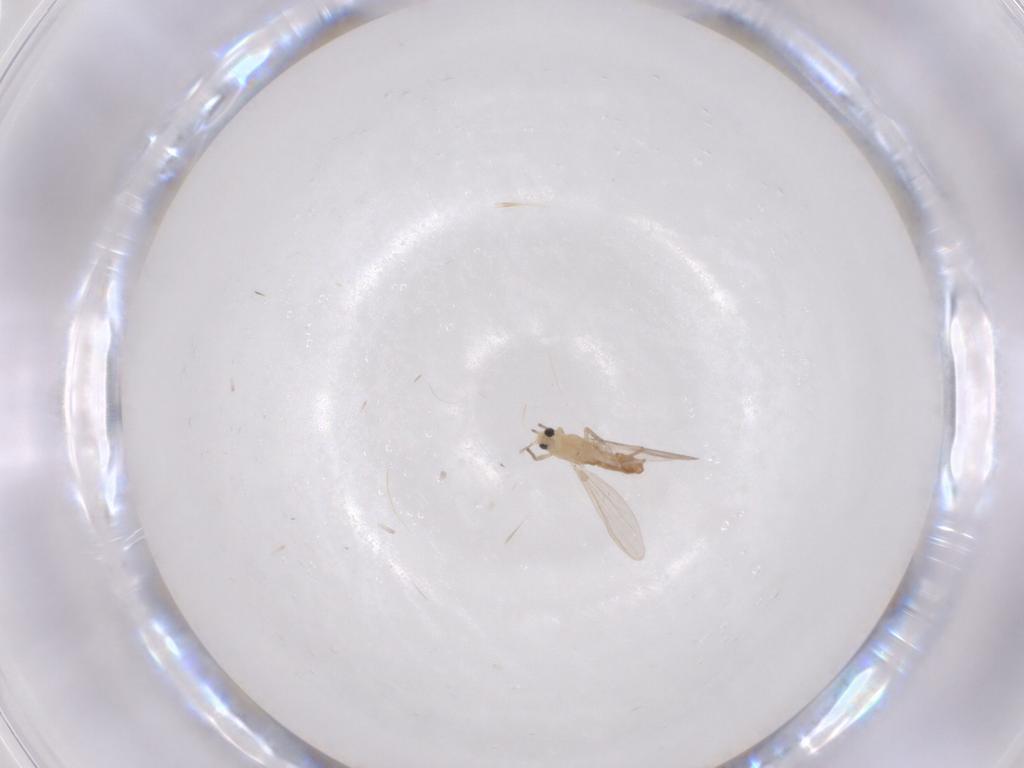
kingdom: Animalia
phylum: Arthropoda
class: Insecta
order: Diptera
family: Chironomidae
